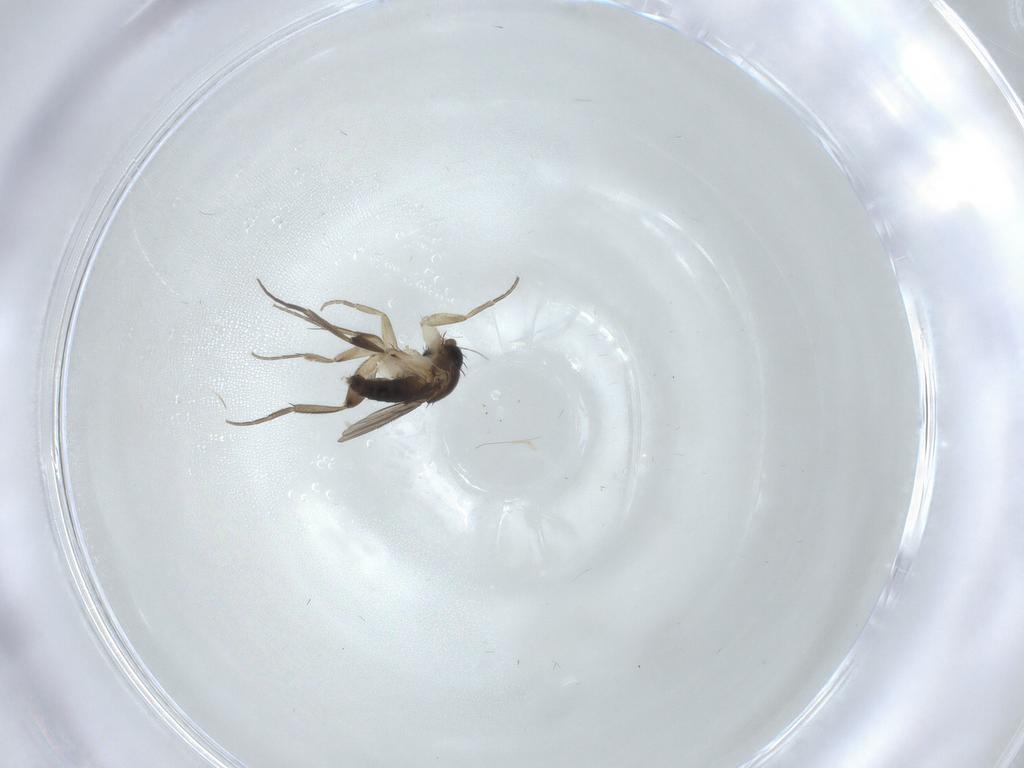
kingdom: Animalia
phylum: Arthropoda
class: Insecta
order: Diptera
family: Phoridae
